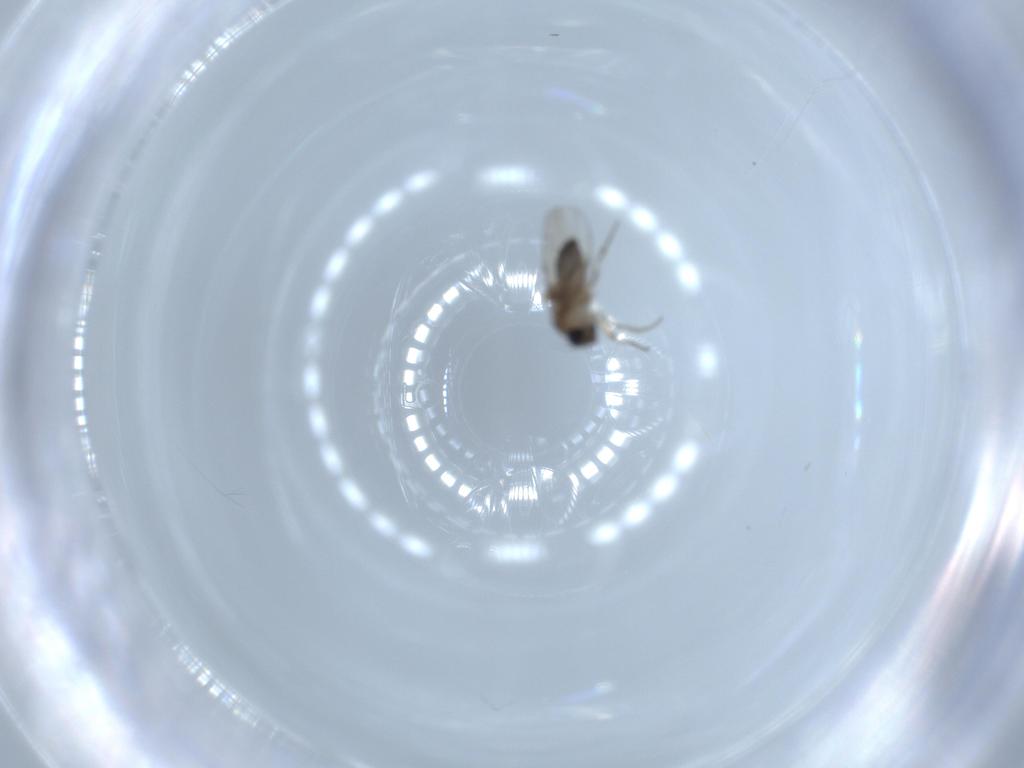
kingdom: Animalia
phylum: Arthropoda
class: Insecta
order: Diptera
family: Phoridae
